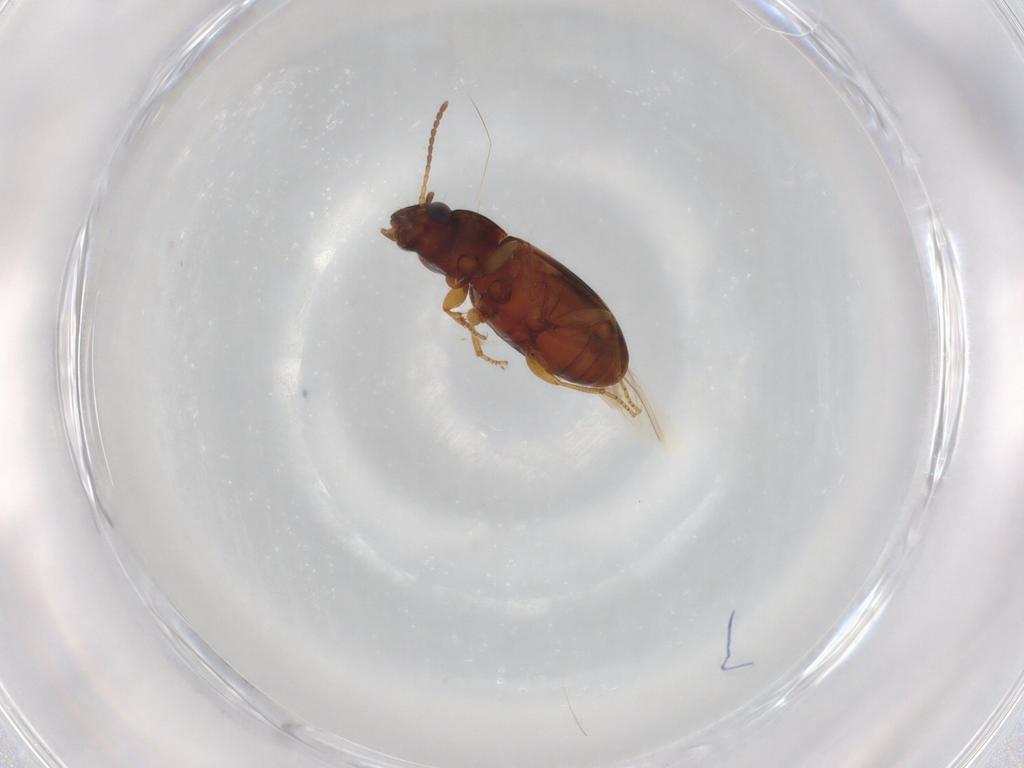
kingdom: Animalia
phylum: Arthropoda
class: Insecta
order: Coleoptera
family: Carabidae
